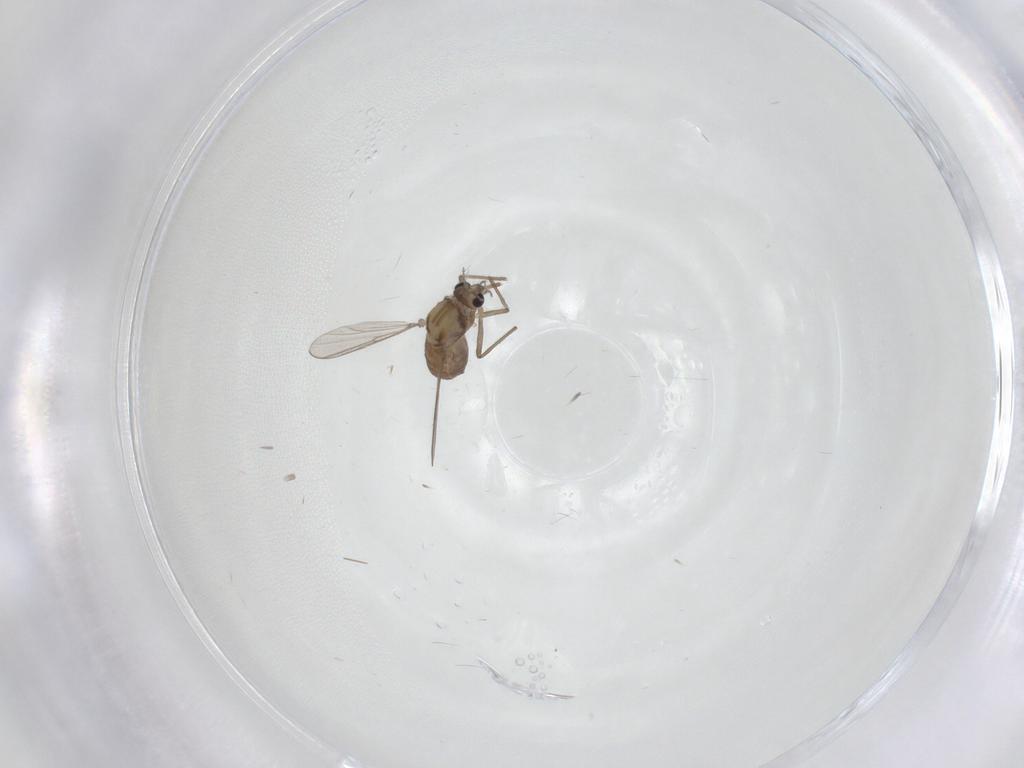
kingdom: Animalia
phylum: Arthropoda
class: Insecta
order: Diptera
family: Chironomidae
